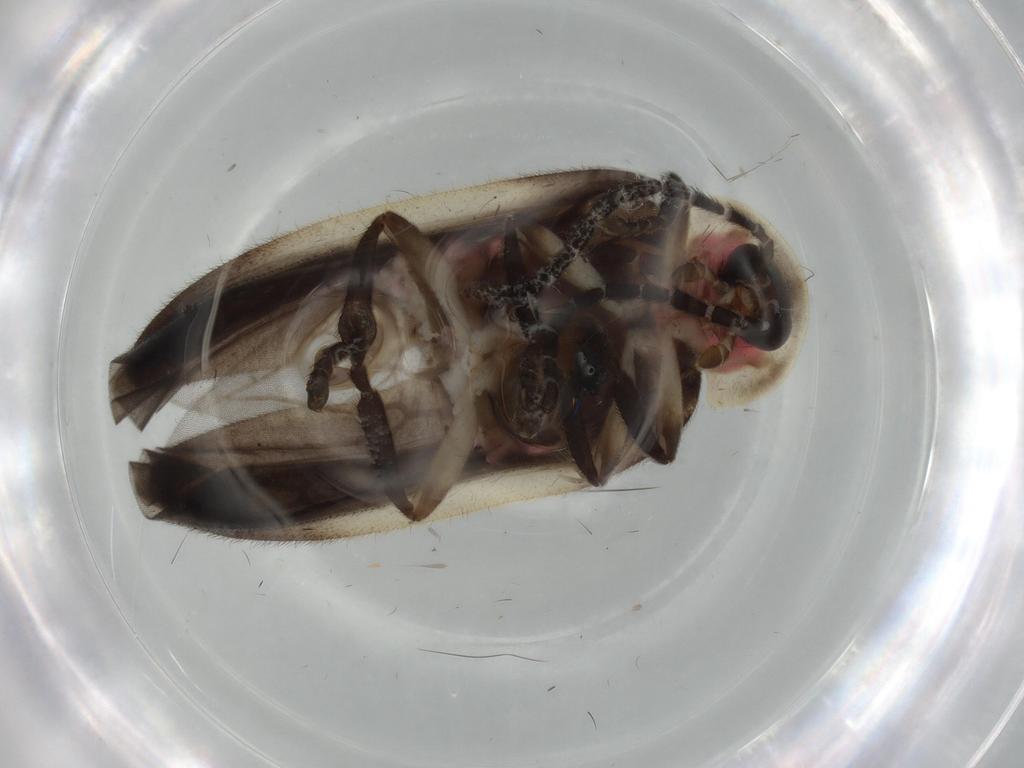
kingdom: Animalia
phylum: Arthropoda
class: Insecta
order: Coleoptera
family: Lampyridae
